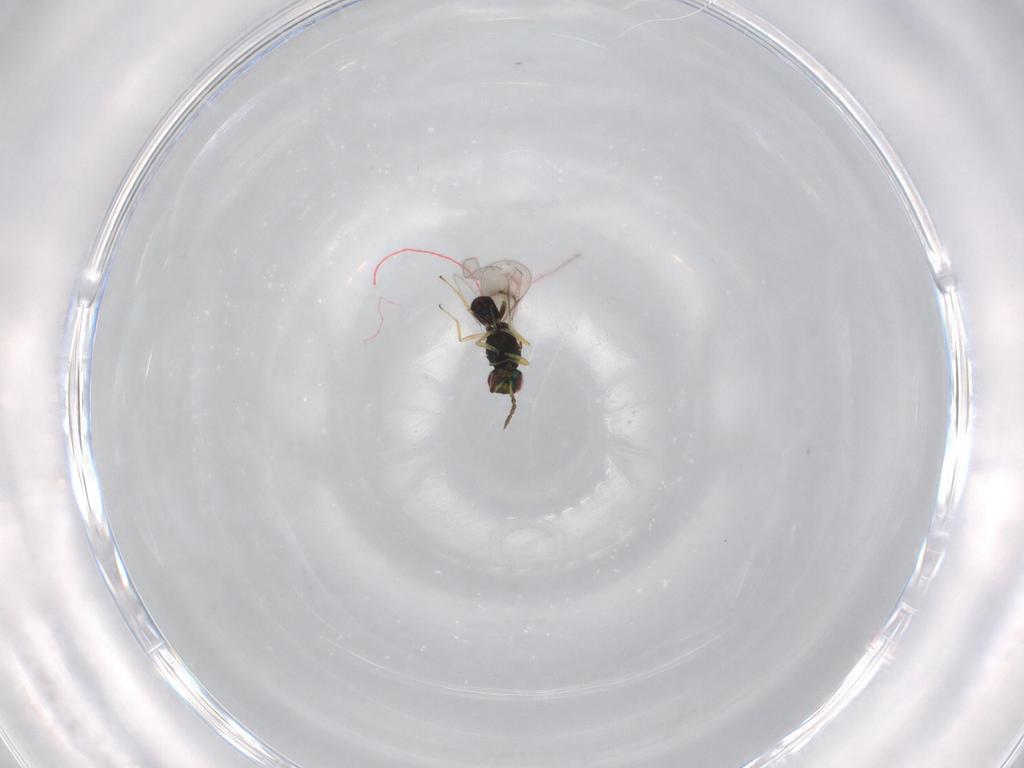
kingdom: Animalia
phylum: Arthropoda
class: Insecta
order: Hymenoptera
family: Eulophidae
